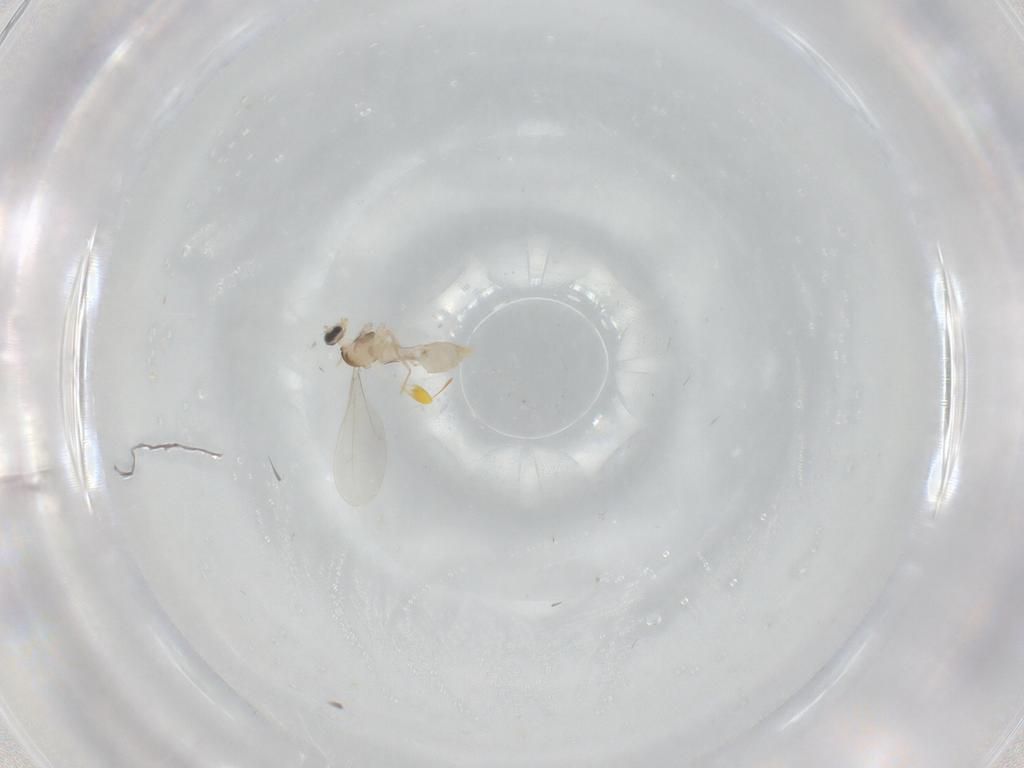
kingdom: Animalia
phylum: Arthropoda
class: Insecta
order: Diptera
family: Cecidomyiidae
